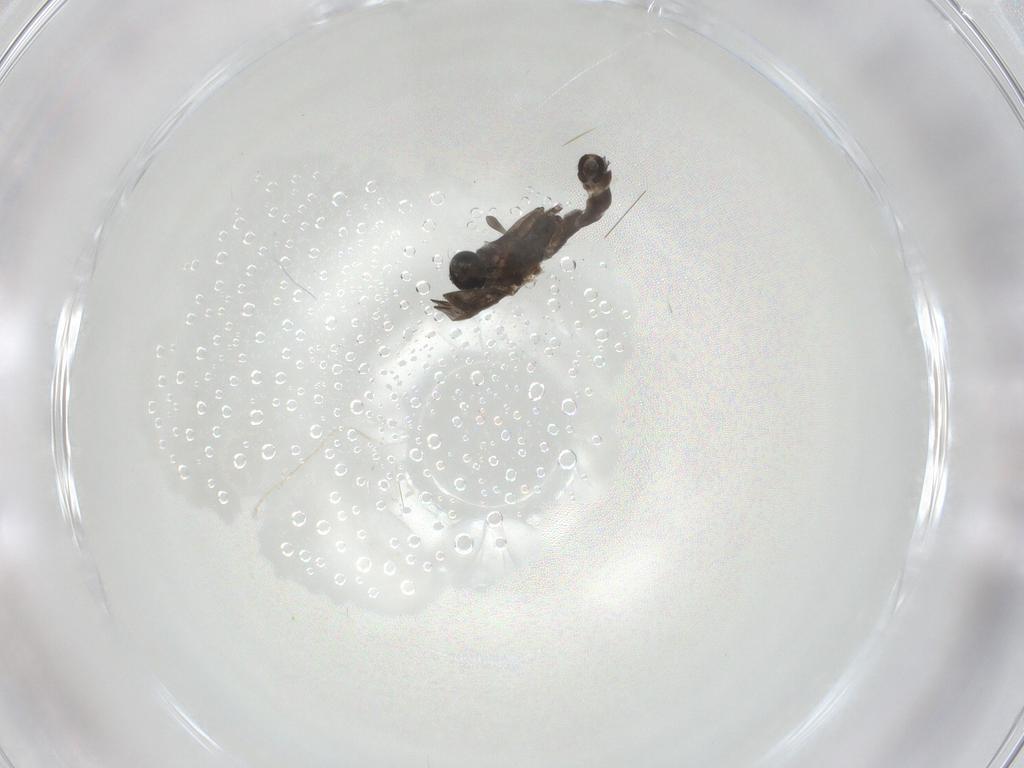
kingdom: Animalia
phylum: Arthropoda
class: Insecta
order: Diptera
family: Sciaridae
